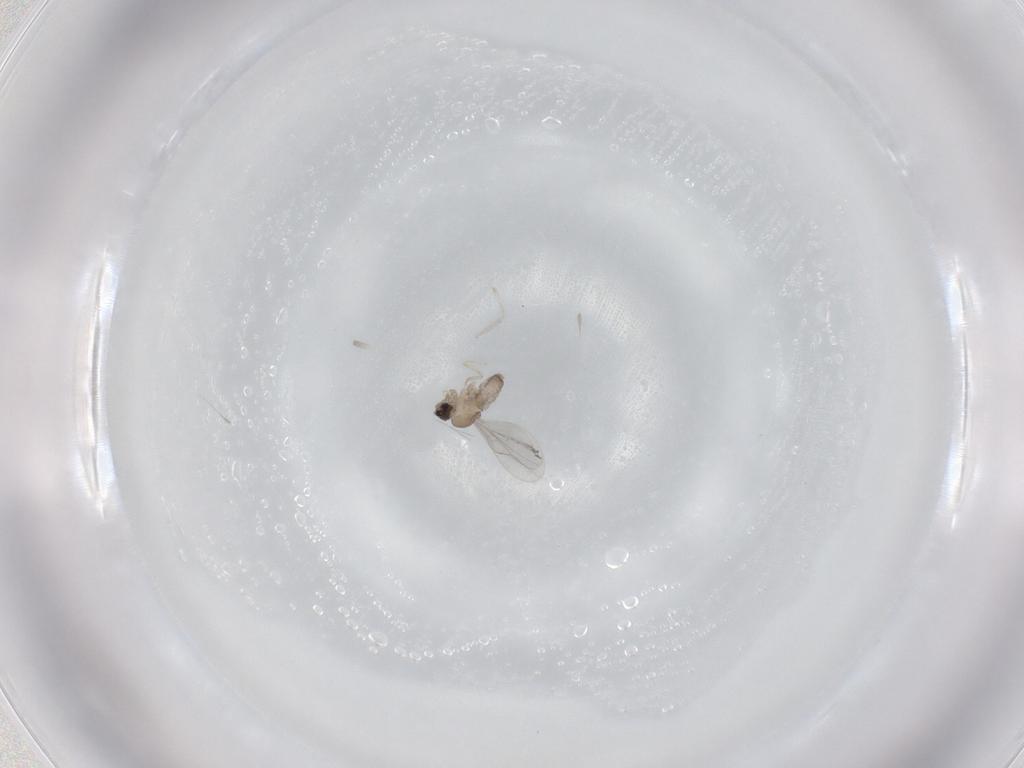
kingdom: Animalia
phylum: Arthropoda
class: Insecta
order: Diptera
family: Cecidomyiidae
